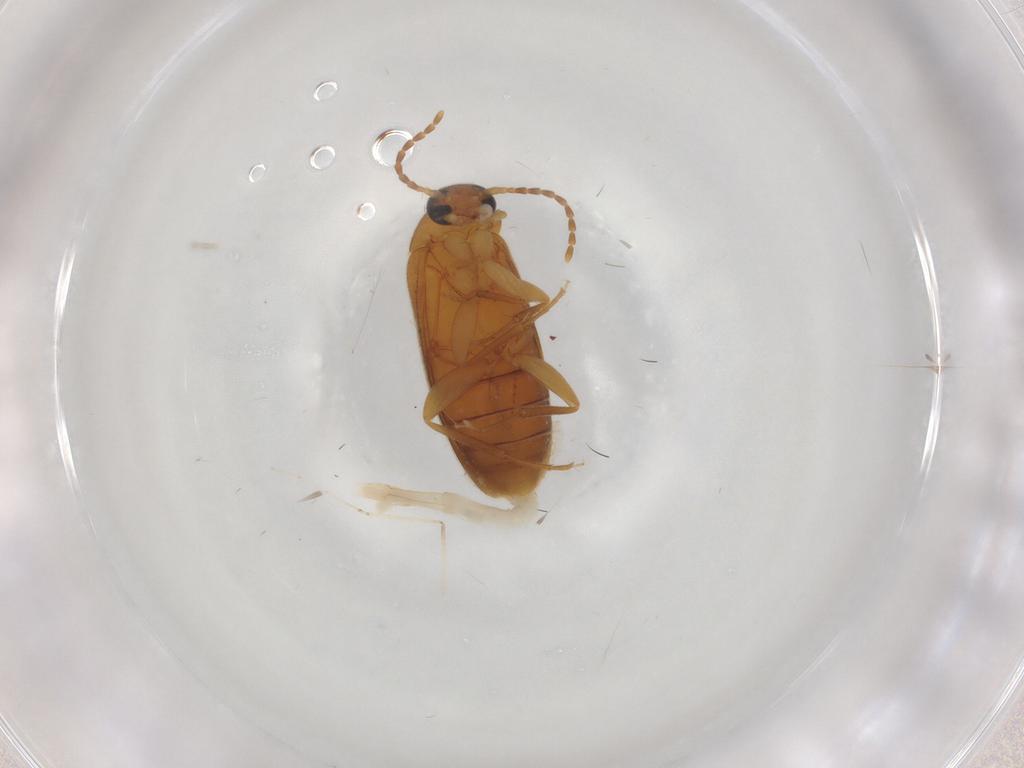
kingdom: Animalia
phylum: Arthropoda
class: Insecta
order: Coleoptera
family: Scraptiidae
